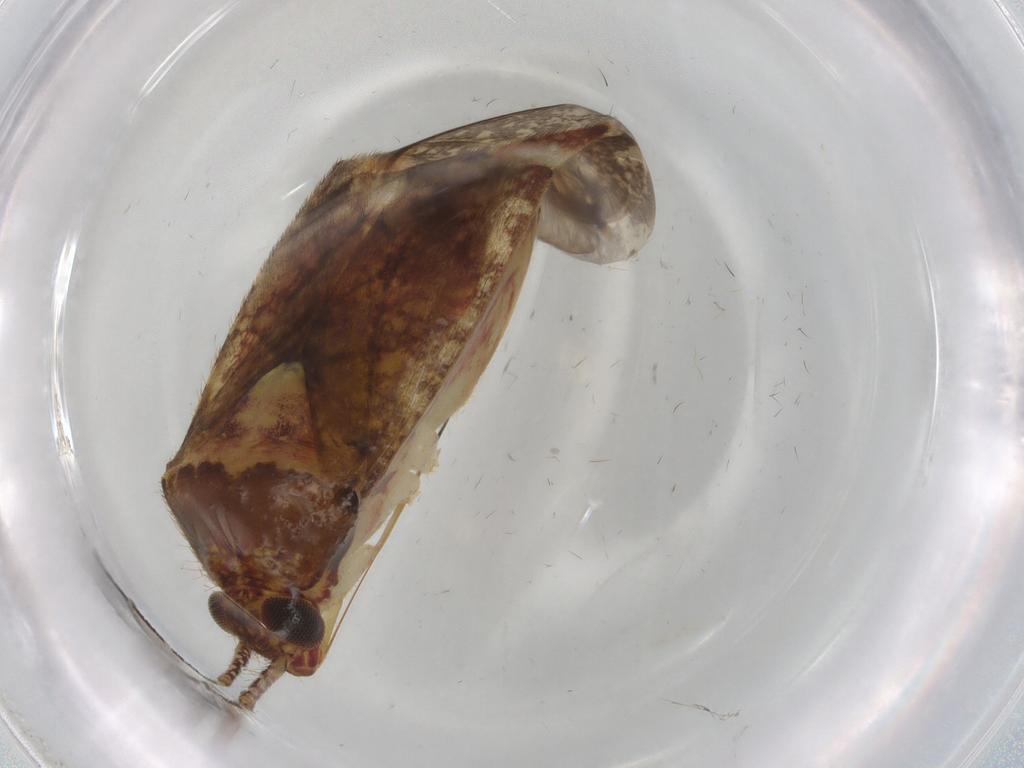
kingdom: Animalia
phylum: Arthropoda
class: Insecta
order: Hemiptera
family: Miridae
